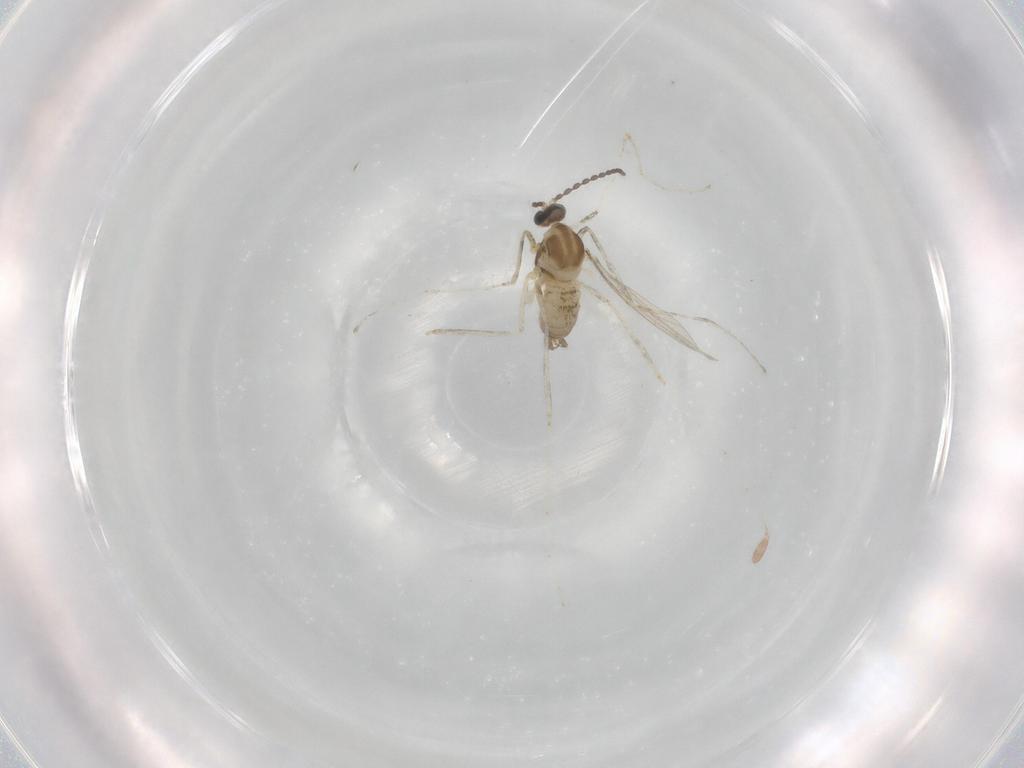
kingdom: Animalia
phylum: Arthropoda
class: Insecta
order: Diptera
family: Cecidomyiidae
